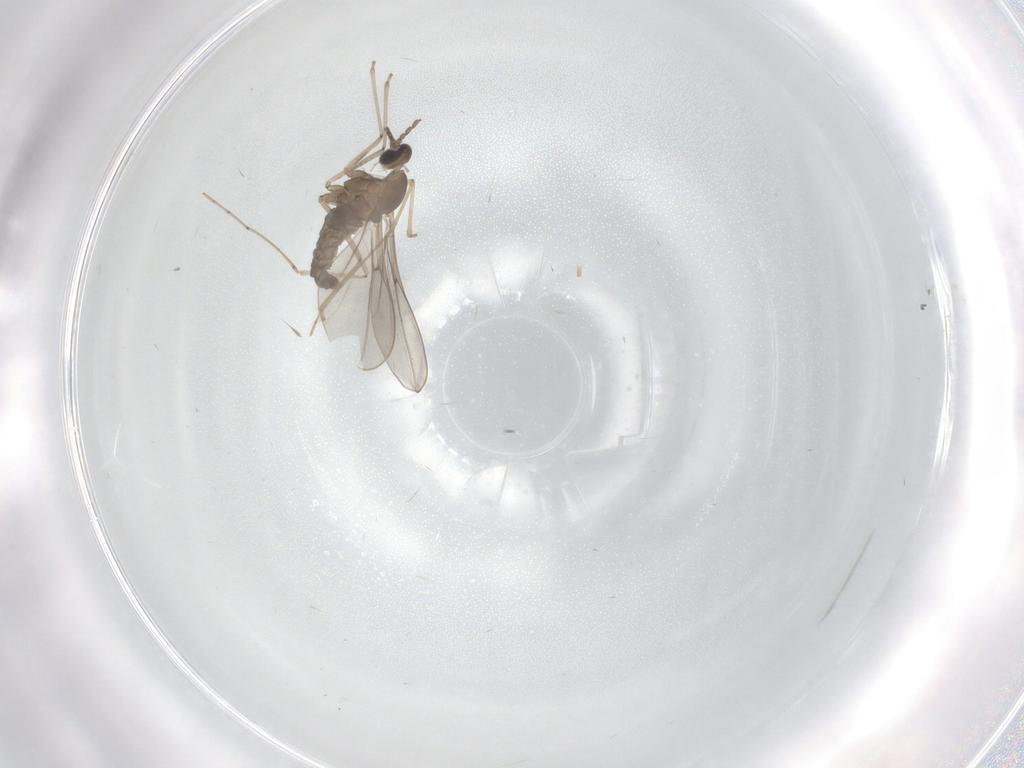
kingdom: Animalia
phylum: Arthropoda
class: Insecta
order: Diptera
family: Cecidomyiidae
